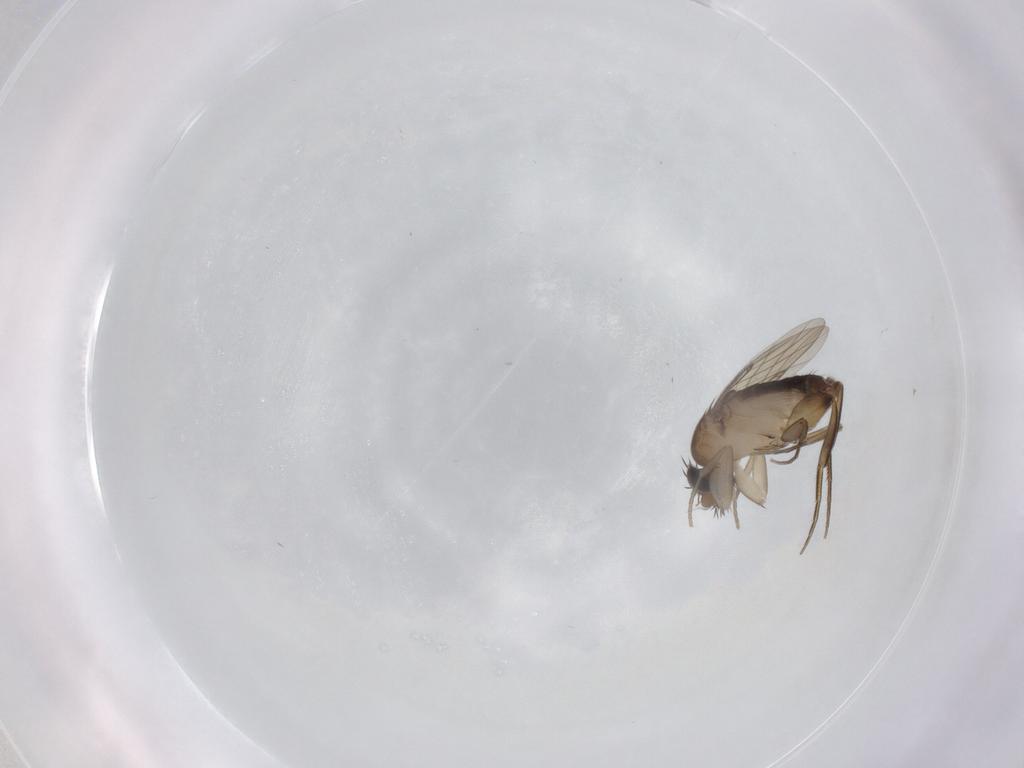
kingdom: Animalia
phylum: Arthropoda
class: Insecta
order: Diptera
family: Phoridae
